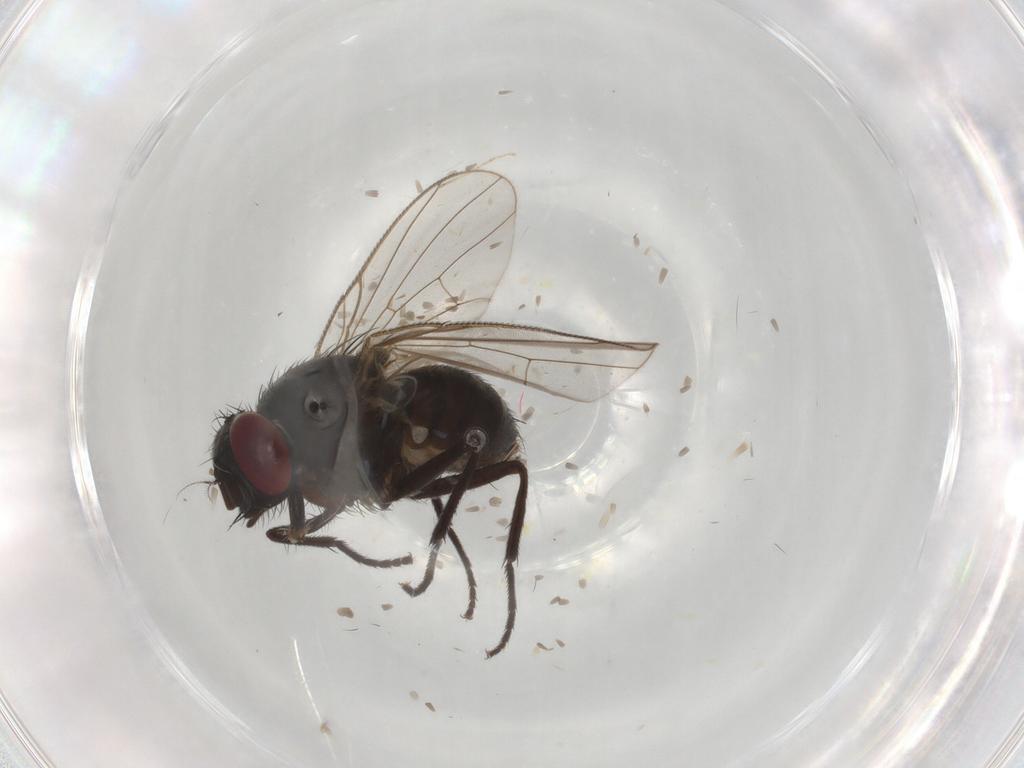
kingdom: Animalia
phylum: Arthropoda
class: Insecta
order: Diptera
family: Muscidae
